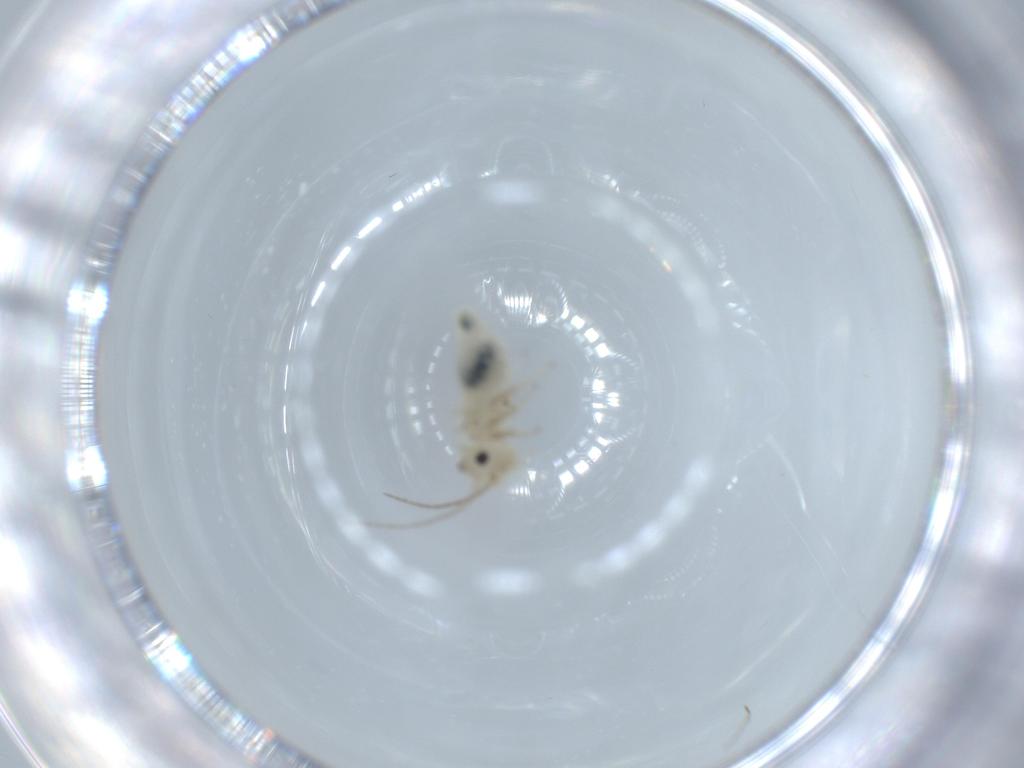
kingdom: Animalia
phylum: Arthropoda
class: Insecta
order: Psocodea
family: Caeciliusidae
